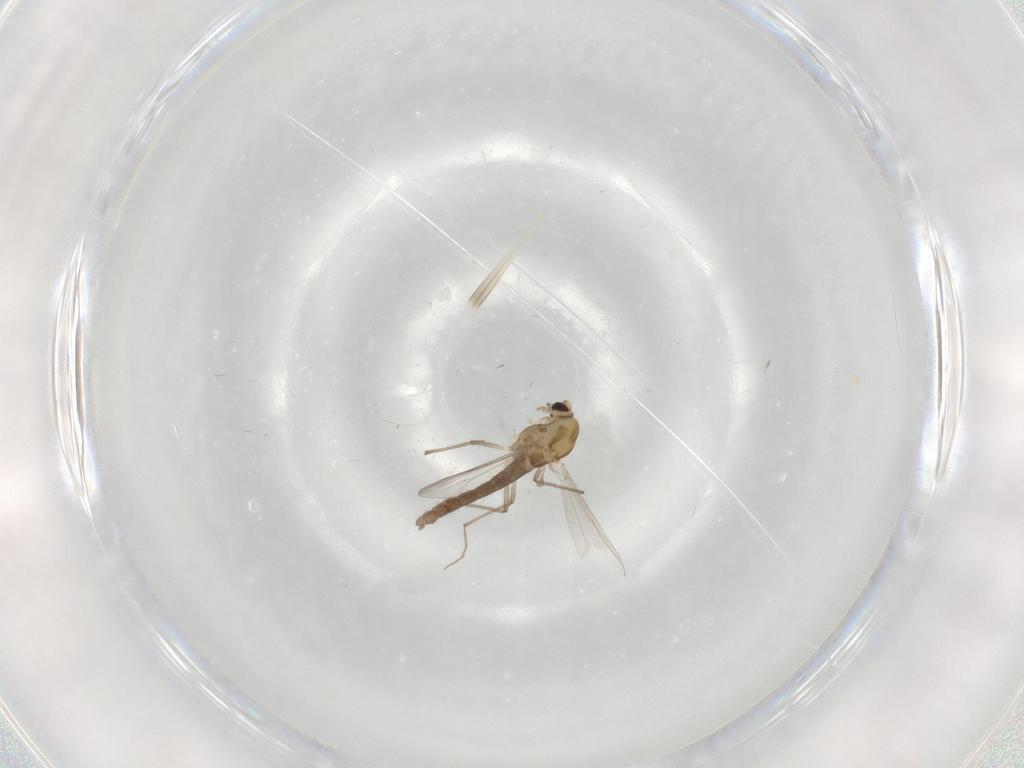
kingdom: Animalia
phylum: Arthropoda
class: Insecta
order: Diptera
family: Chironomidae
